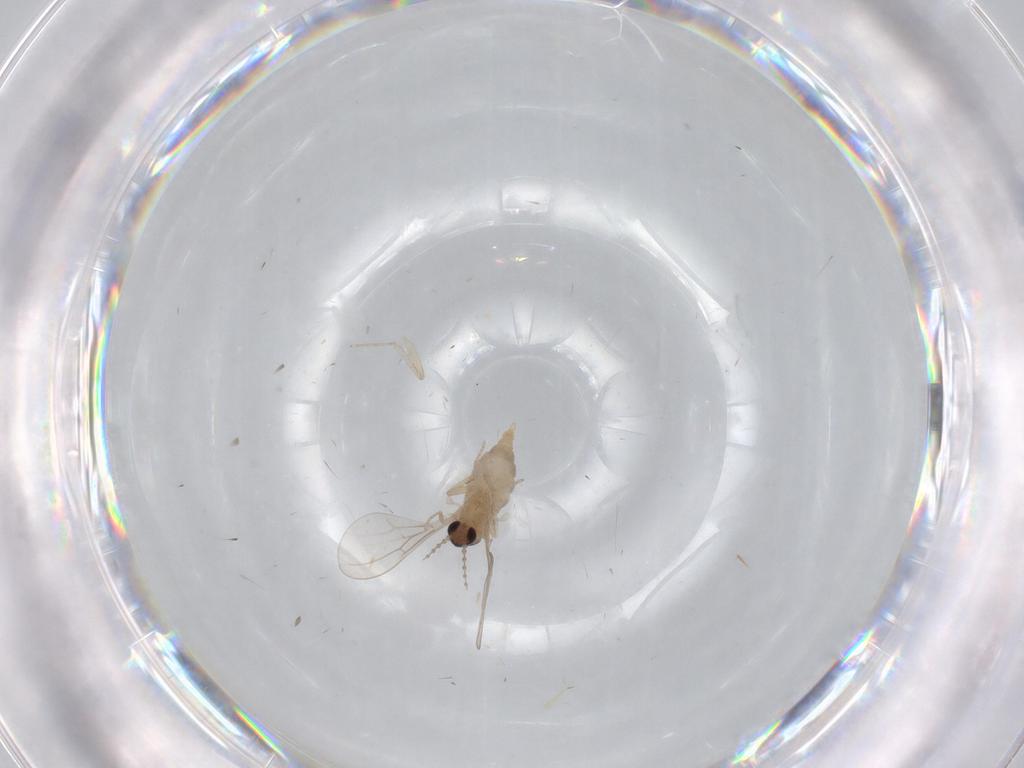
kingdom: Animalia
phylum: Arthropoda
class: Insecta
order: Diptera
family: Cecidomyiidae
